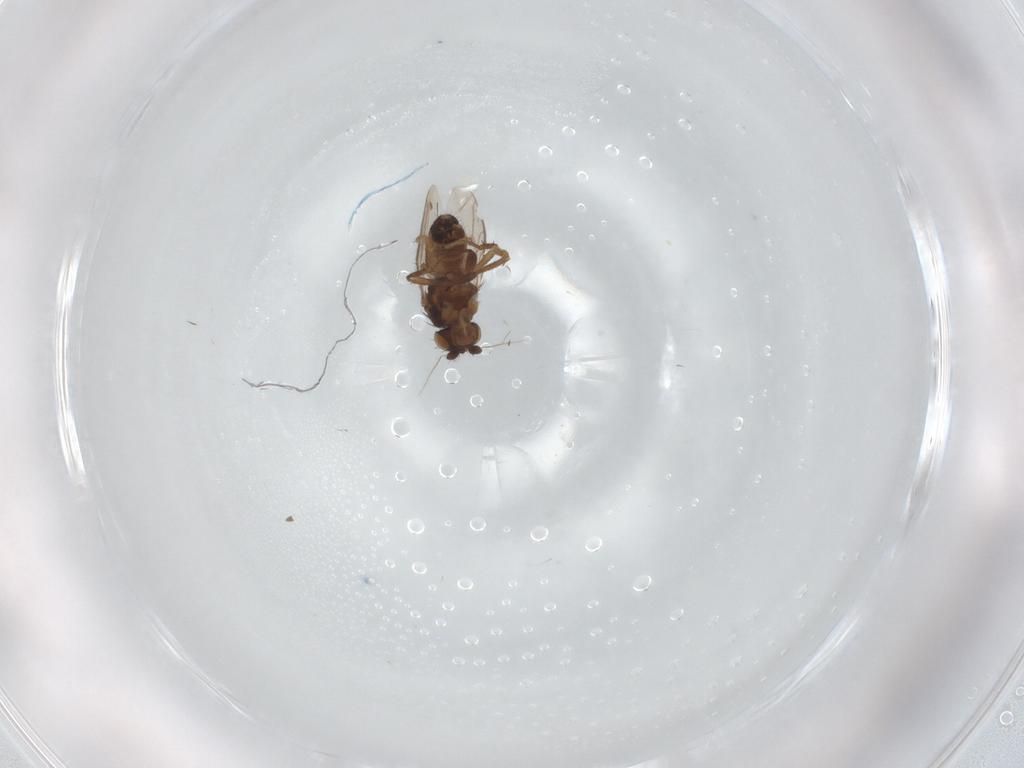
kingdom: Animalia
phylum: Arthropoda
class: Insecta
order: Diptera
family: Sphaeroceridae
